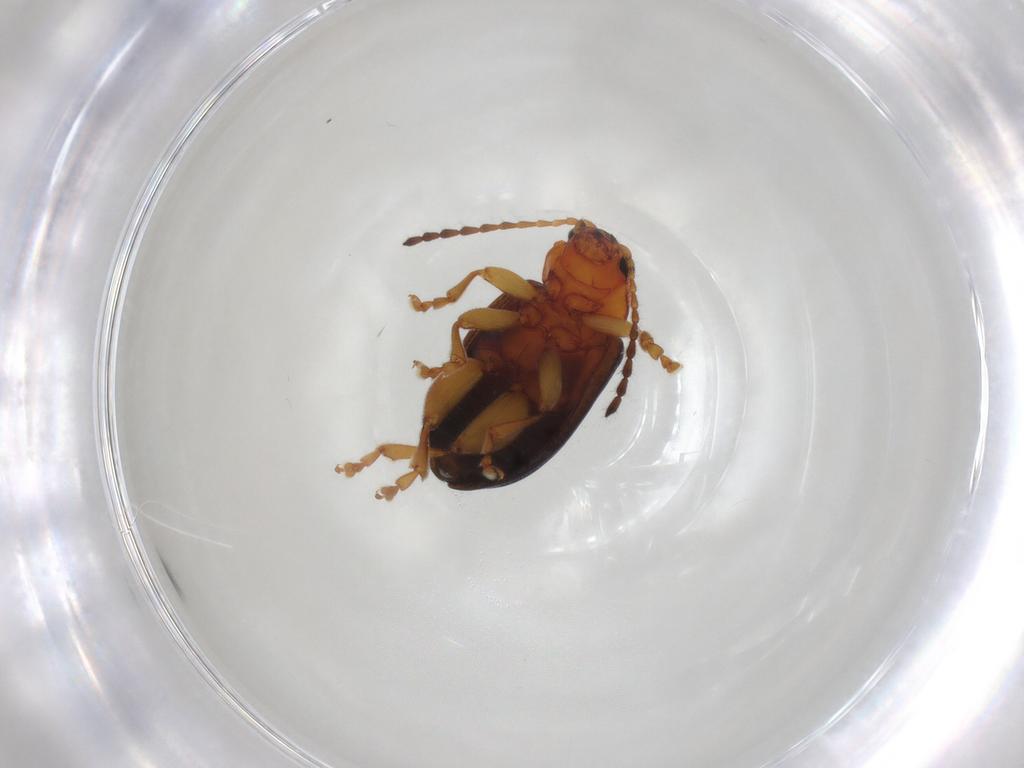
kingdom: Animalia
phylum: Arthropoda
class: Insecta
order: Coleoptera
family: Chrysomelidae
